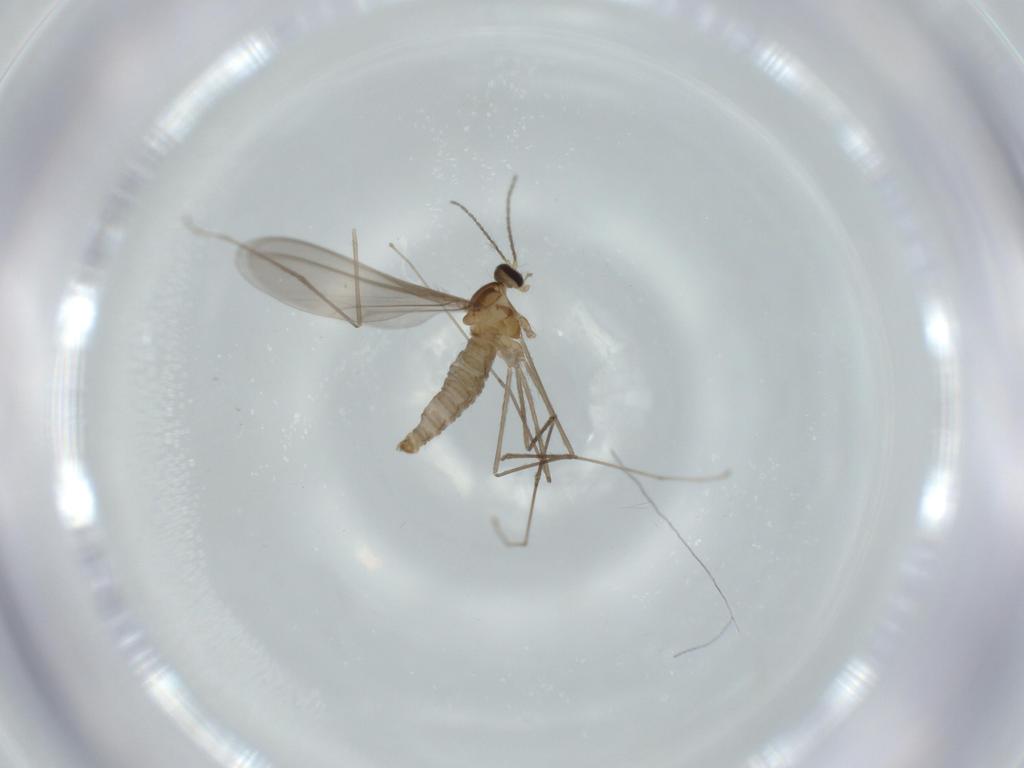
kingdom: Animalia
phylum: Arthropoda
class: Insecta
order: Diptera
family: Cecidomyiidae
